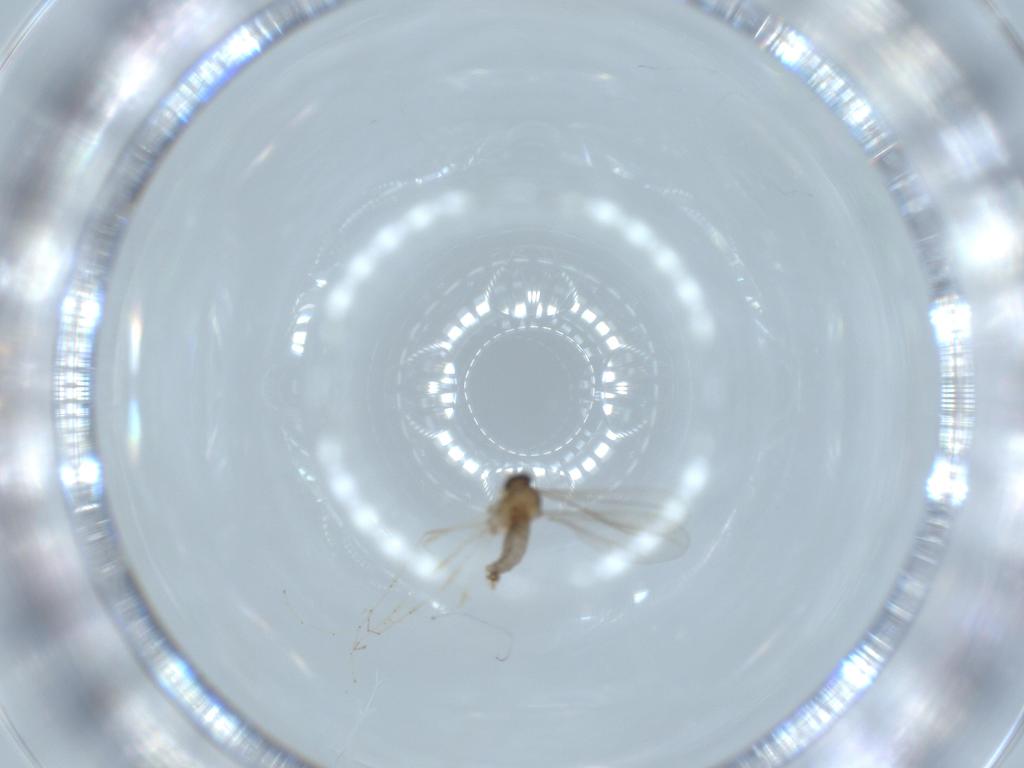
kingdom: Animalia
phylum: Arthropoda
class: Insecta
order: Diptera
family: Cecidomyiidae
